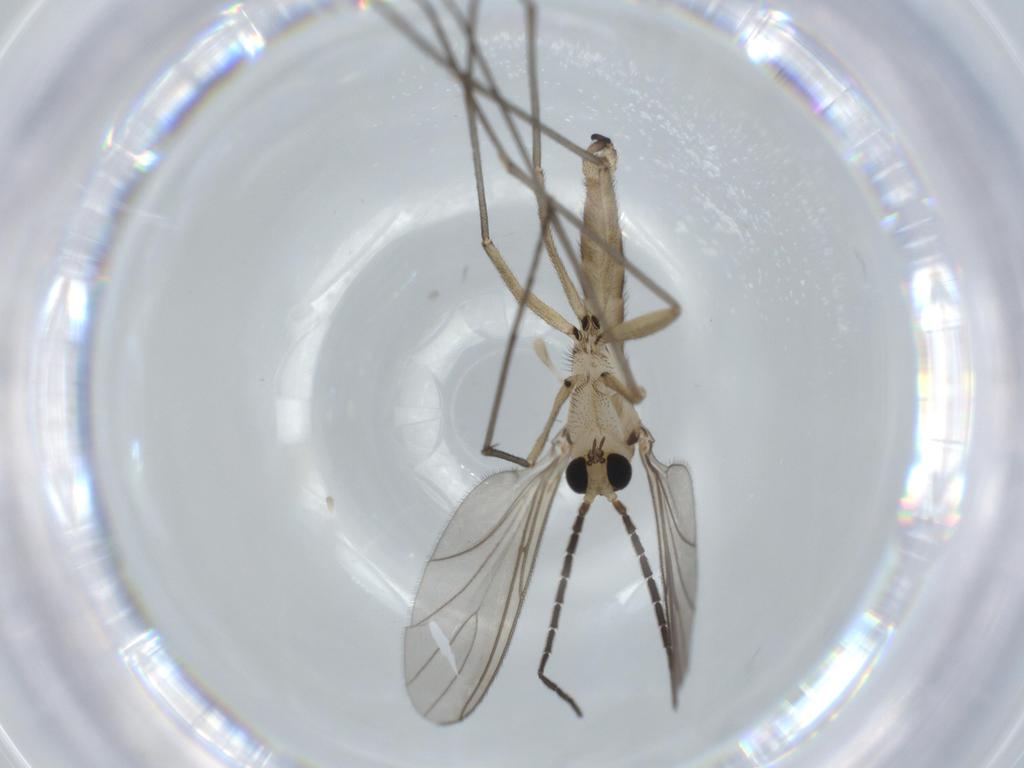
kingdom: Animalia
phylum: Arthropoda
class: Insecta
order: Diptera
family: Sciaridae
